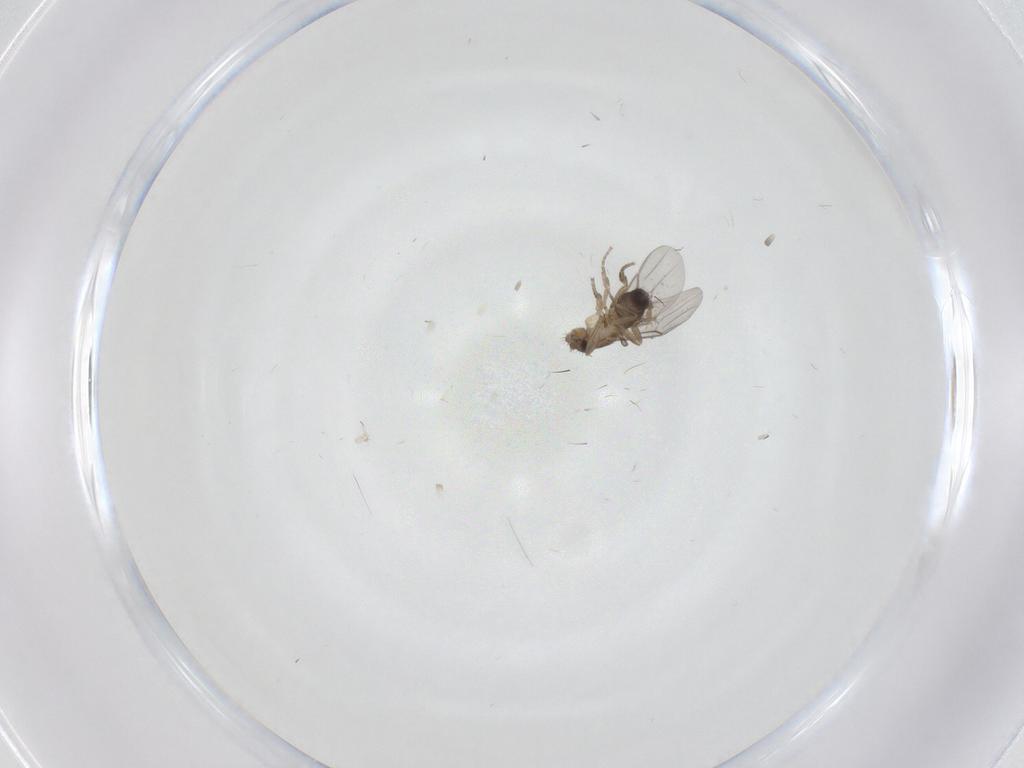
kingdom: Animalia
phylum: Arthropoda
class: Insecta
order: Diptera
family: Phoridae
